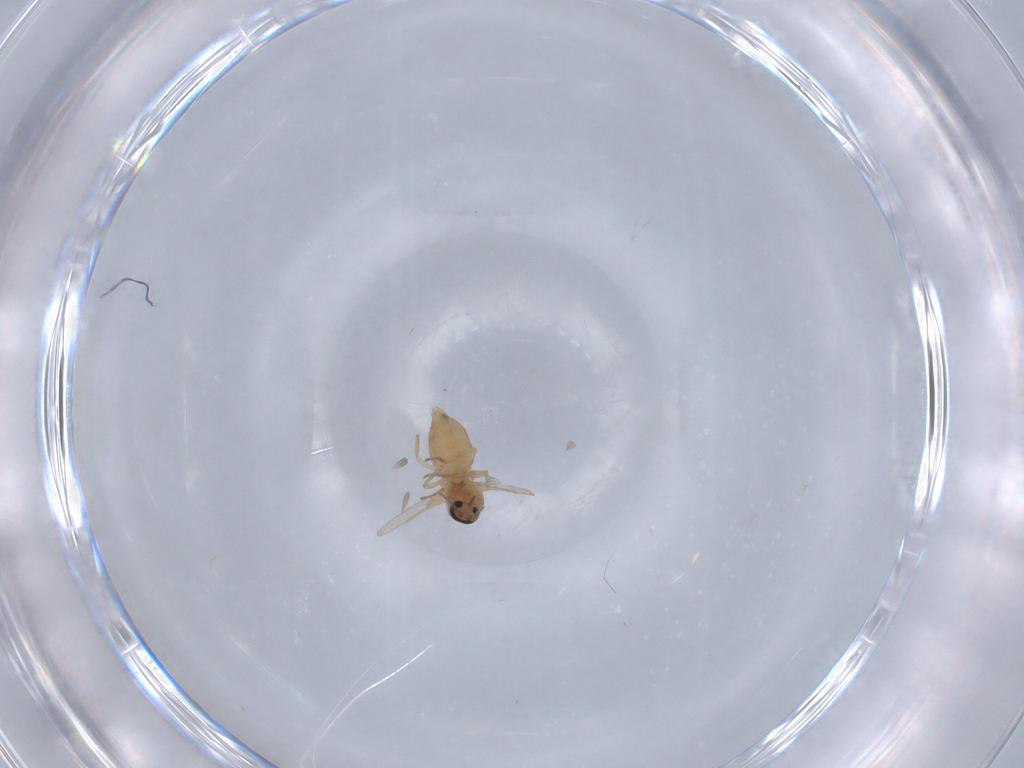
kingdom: Animalia
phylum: Arthropoda
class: Insecta
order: Diptera
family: Ceratopogonidae
